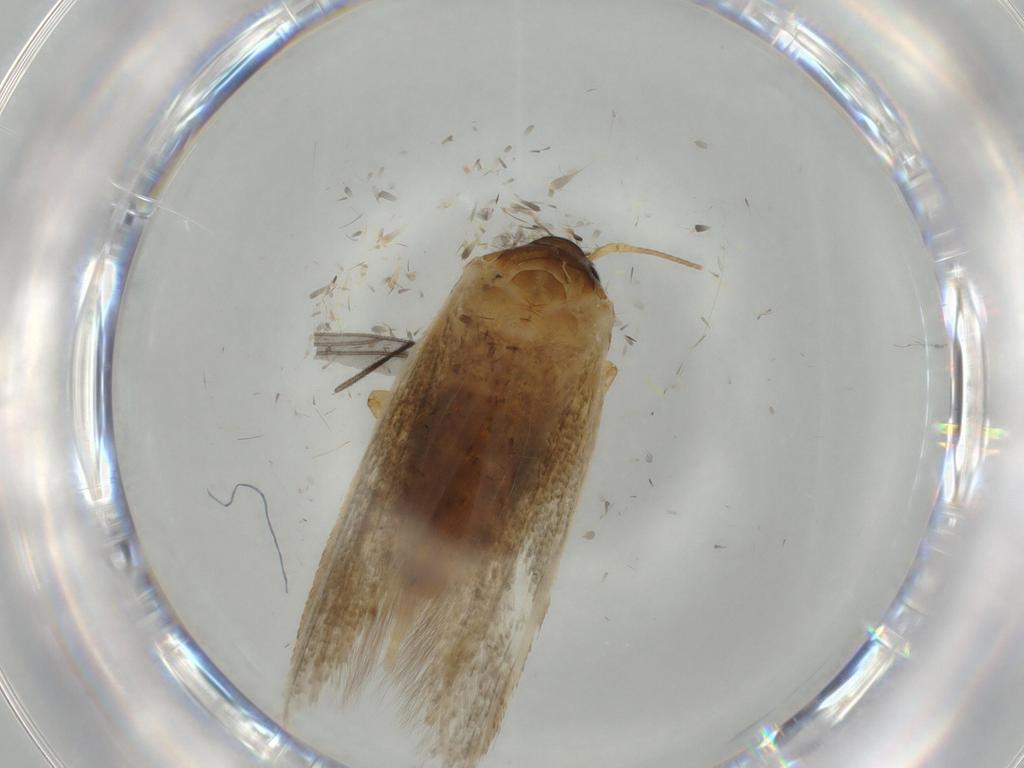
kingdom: Animalia
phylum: Arthropoda
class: Insecta
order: Lepidoptera
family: Blastobasidae
